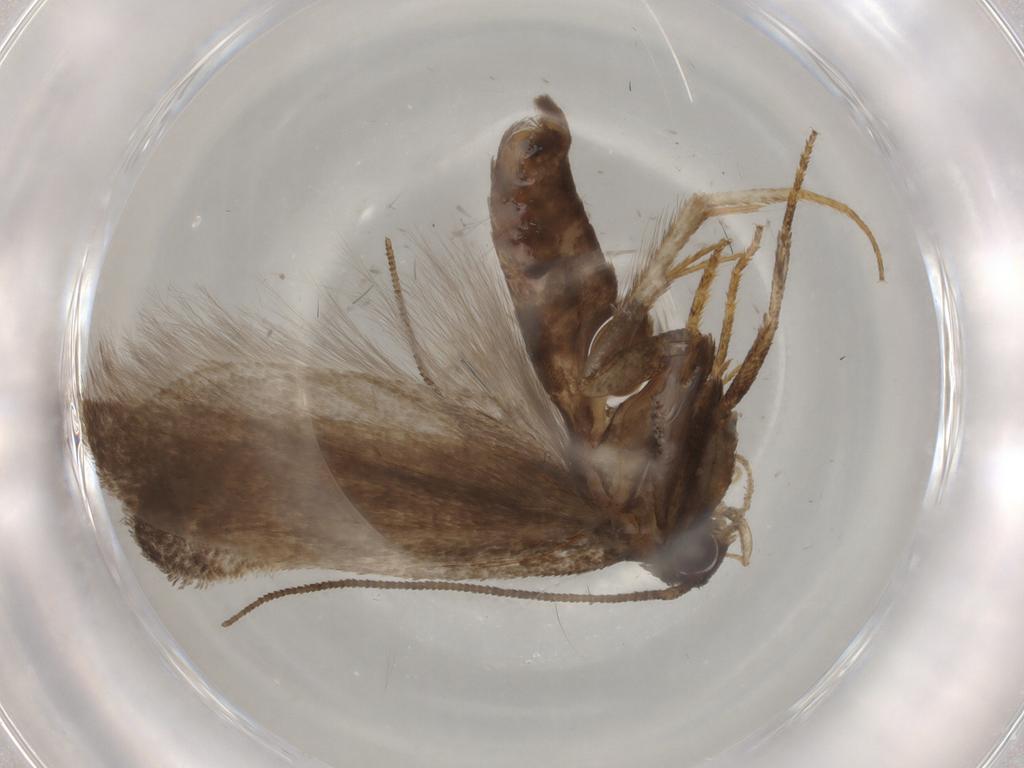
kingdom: Animalia
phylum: Arthropoda
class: Insecta
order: Lepidoptera
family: Gelechiidae
